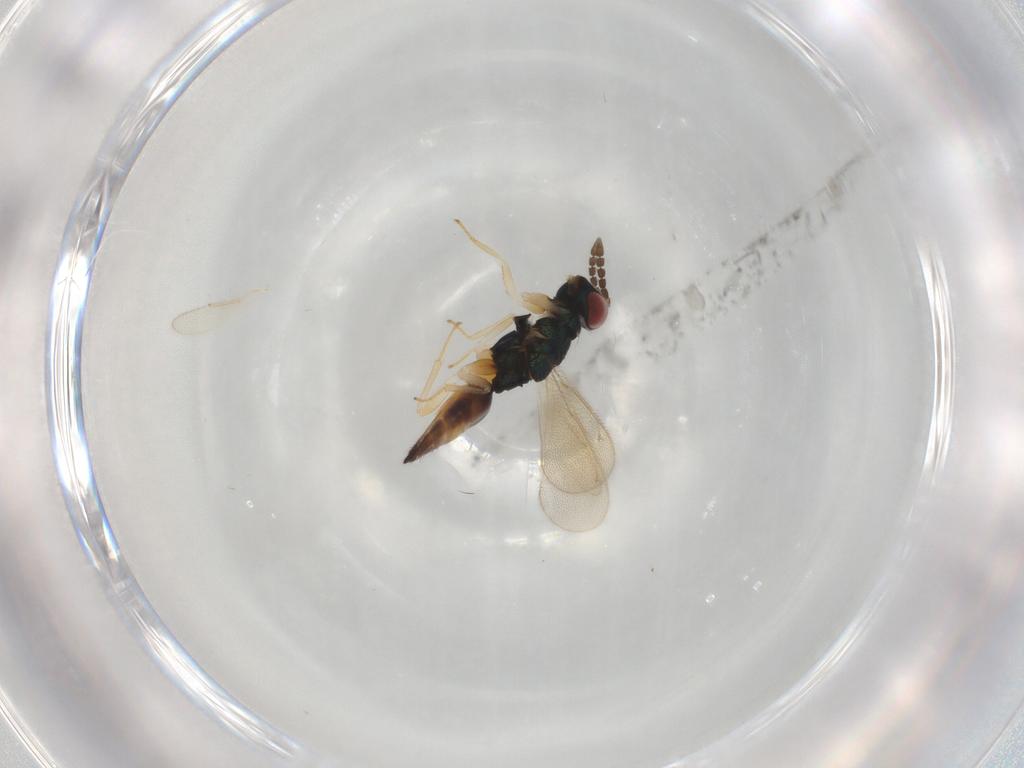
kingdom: Animalia
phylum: Arthropoda
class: Insecta
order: Hymenoptera
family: Eulophidae
